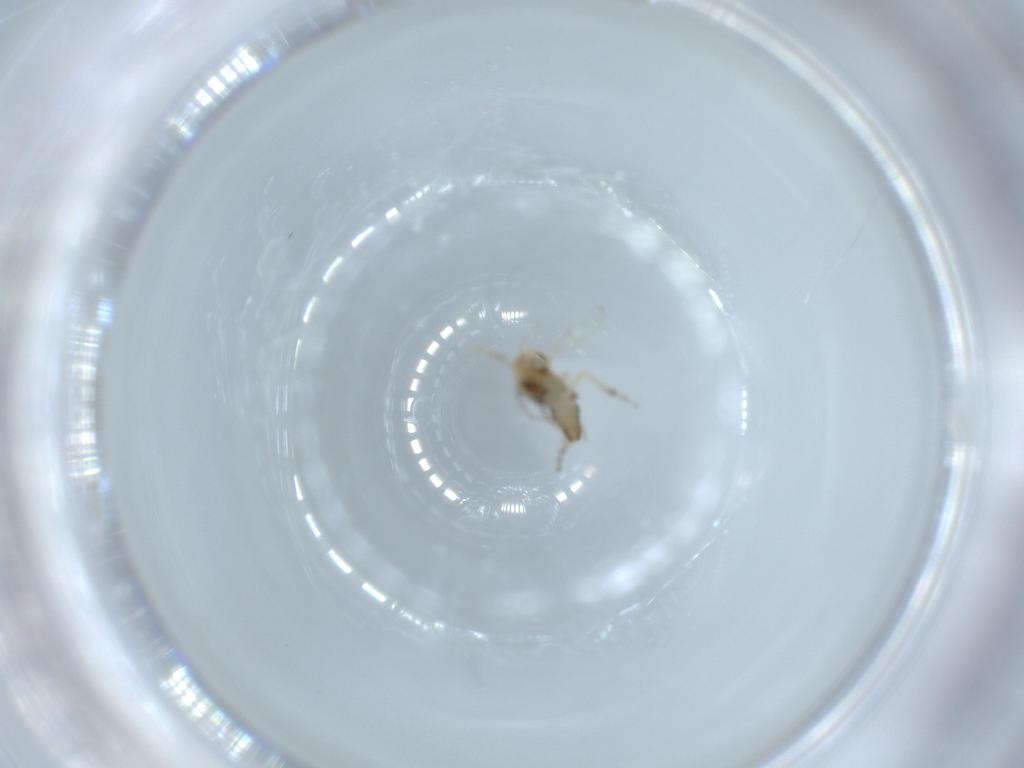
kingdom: Animalia
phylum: Arthropoda
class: Insecta
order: Diptera
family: Ceratopogonidae
